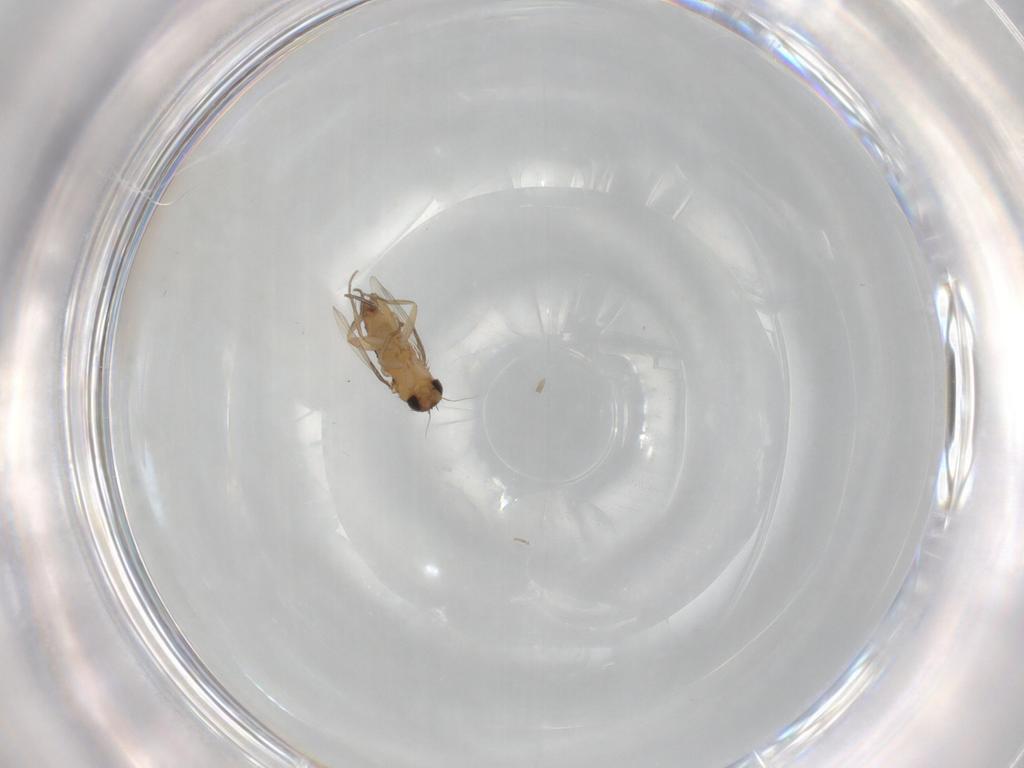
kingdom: Animalia
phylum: Arthropoda
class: Insecta
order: Diptera
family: Phoridae
